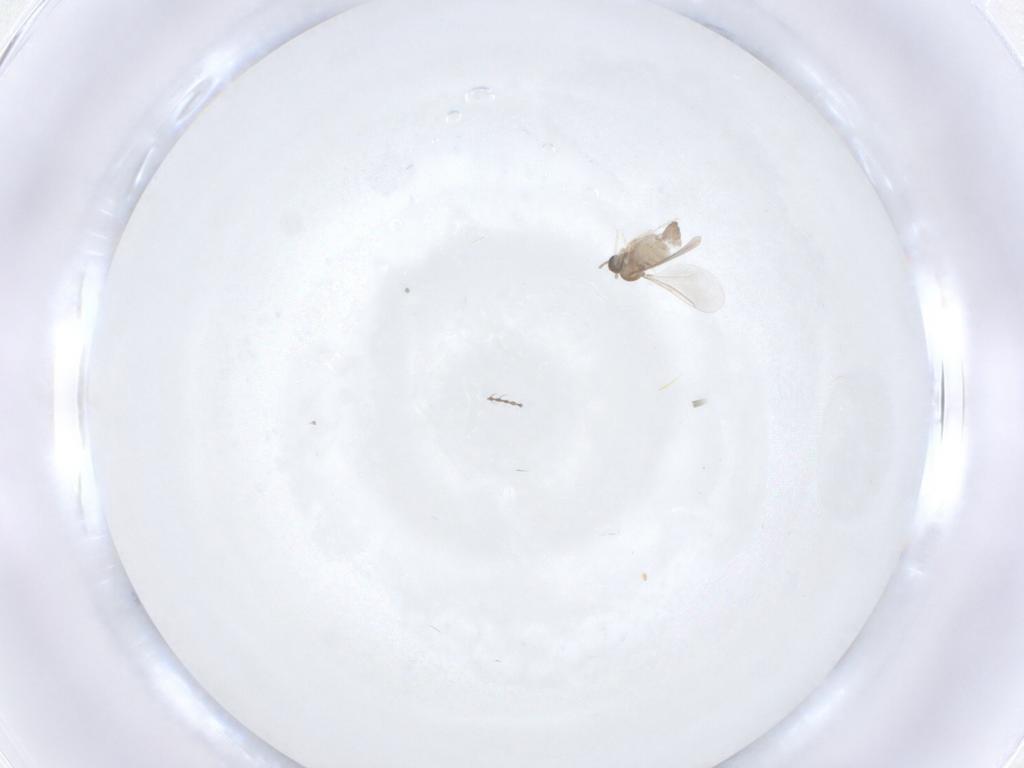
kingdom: Animalia
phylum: Arthropoda
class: Insecta
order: Diptera
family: Cecidomyiidae
